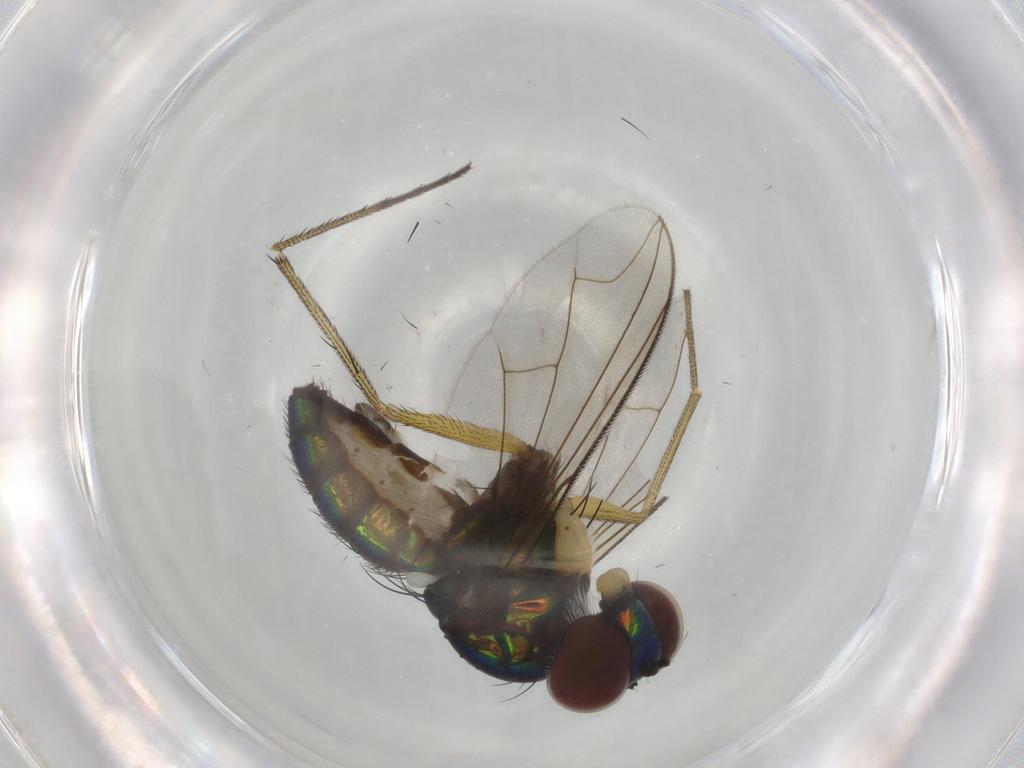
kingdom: Animalia
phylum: Arthropoda
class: Insecta
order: Diptera
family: Dolichopodidae
